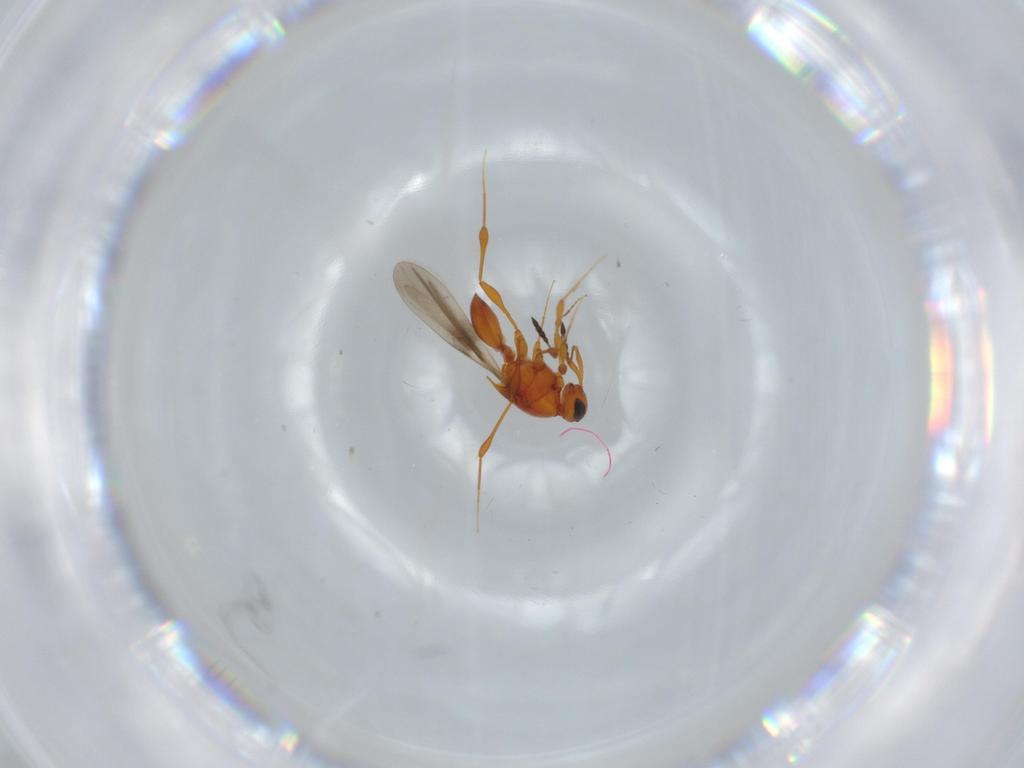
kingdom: Animalia
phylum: Arthropoda
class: Insecta
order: Hymenoptera
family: Platygastridae
